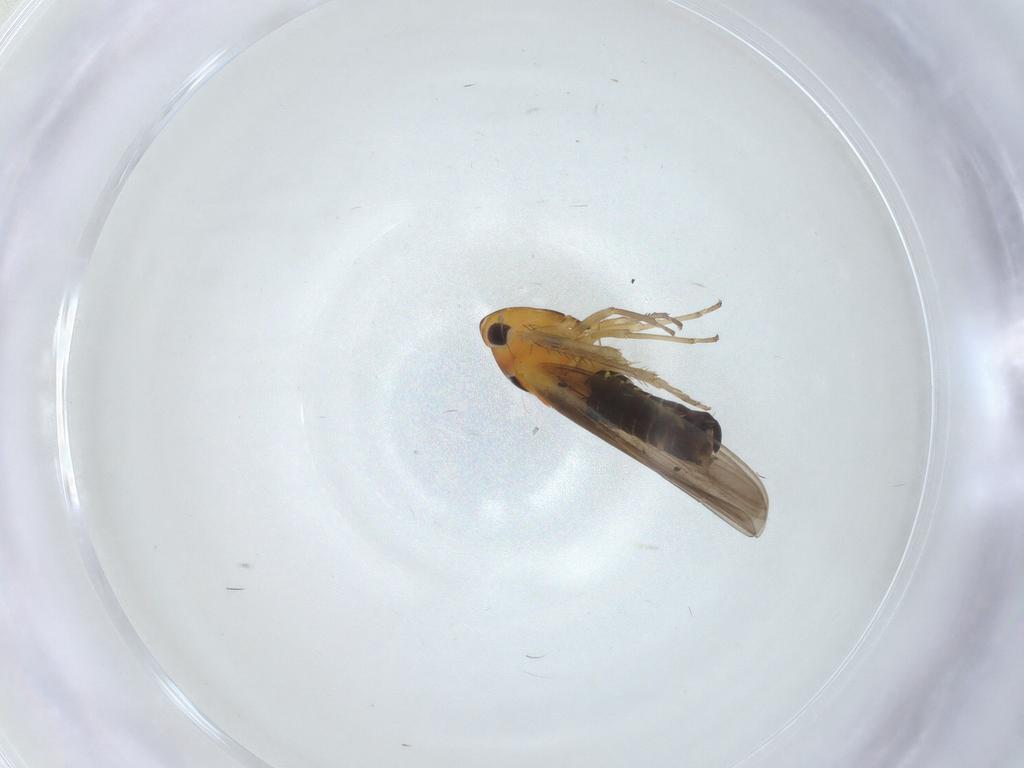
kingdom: Animalia
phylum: Arthropoda
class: Insecta
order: Hemiptera
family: Cicadellidae
